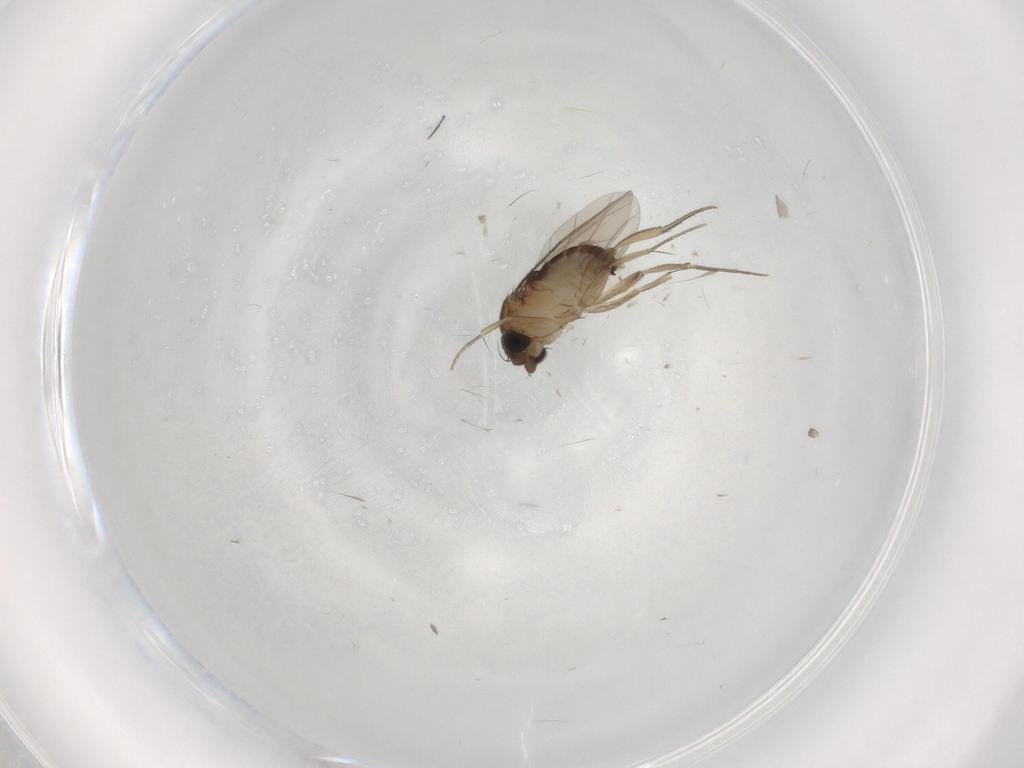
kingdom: Animalia
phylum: Arthropoda
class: Insecta
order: Diptera
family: Phoridae
